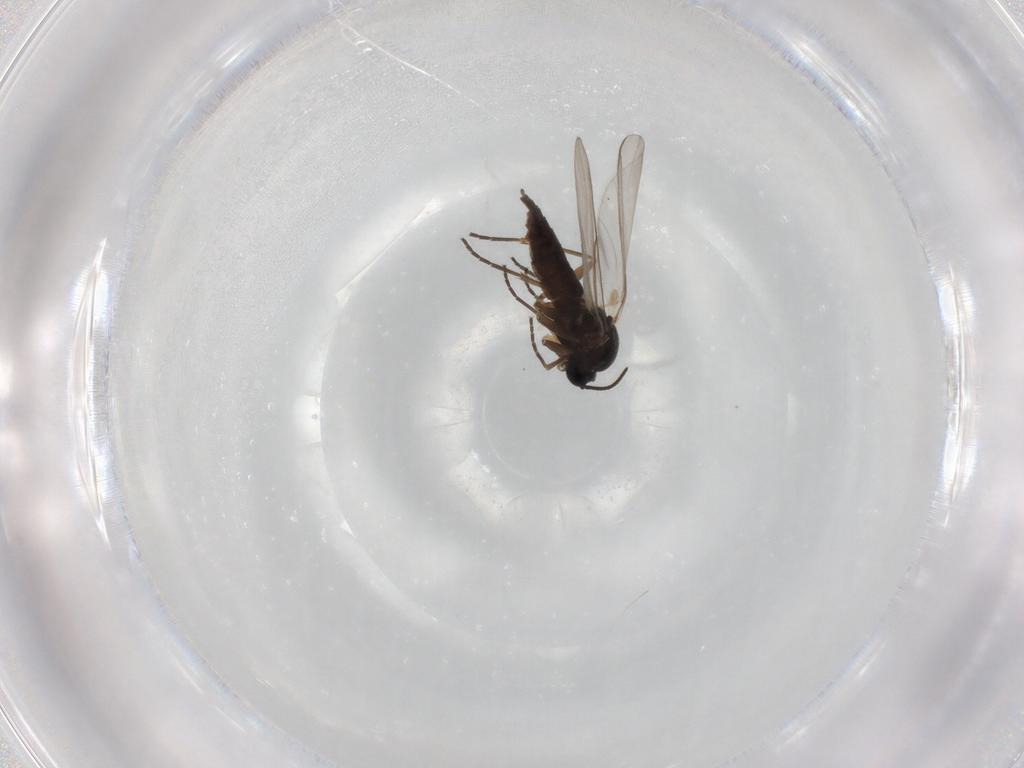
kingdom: Animalia
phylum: Arthropoda
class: Insecta
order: Diptera
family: Sciaridae
